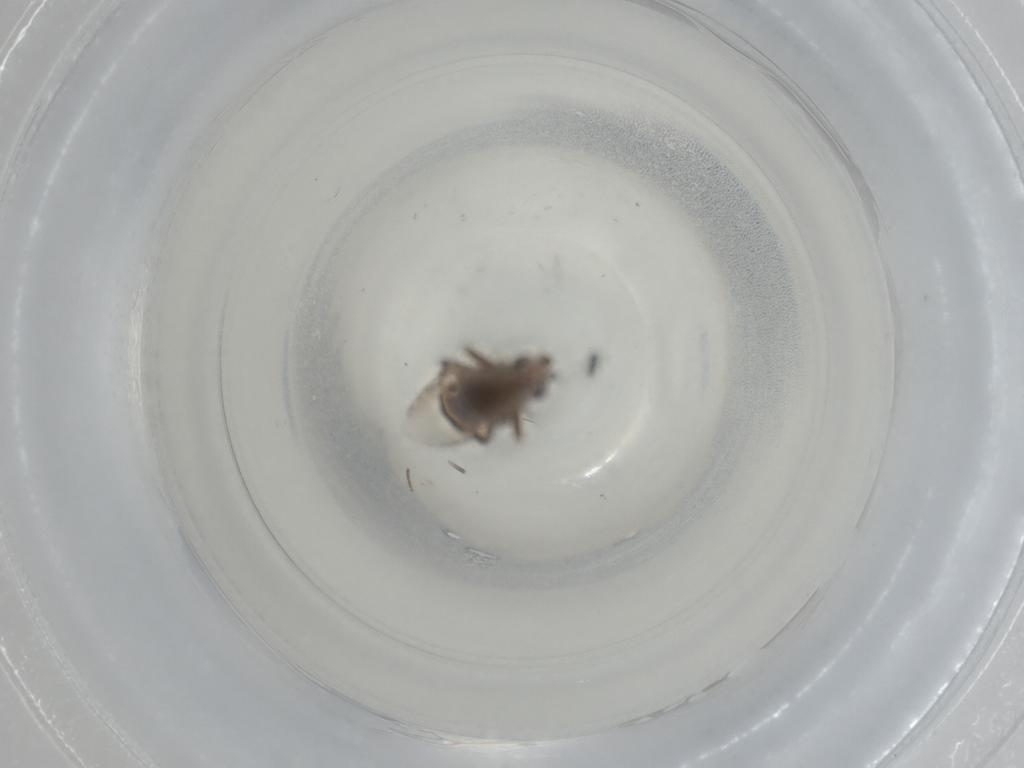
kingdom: Animalia
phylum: Arthropoda
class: Insecta
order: Diptera
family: Sphaeroceridae
